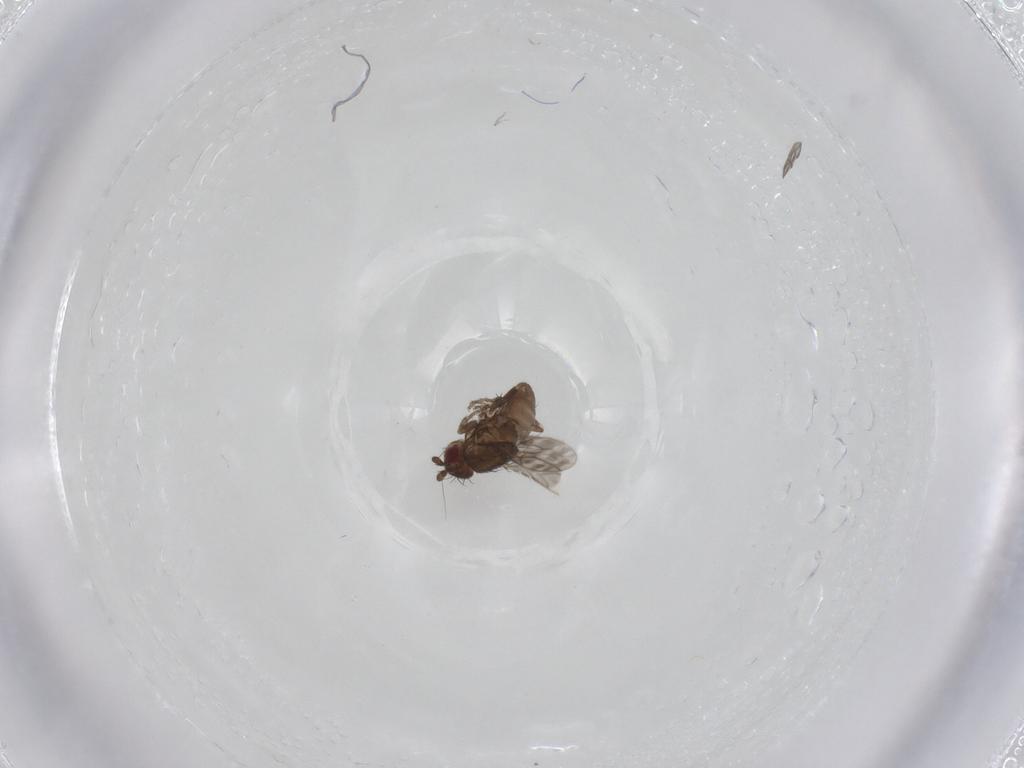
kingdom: Animalia
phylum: Arthropoda
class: Insecta
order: Diptera
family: Sphaeroceridae
